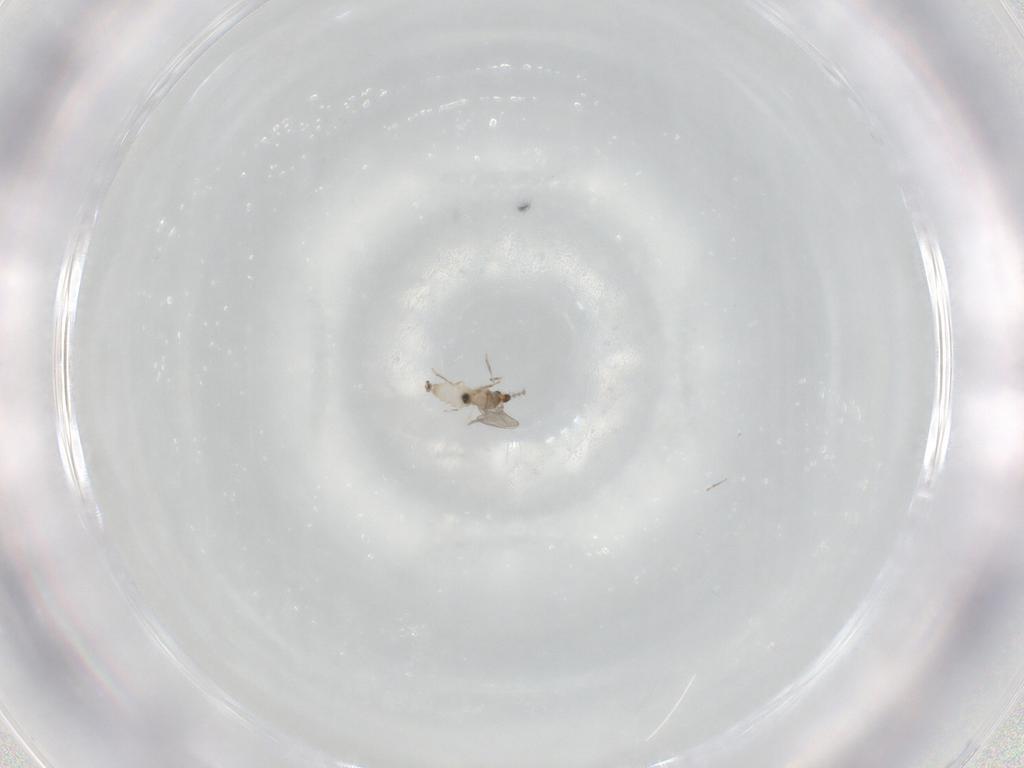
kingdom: Animalia
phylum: Arthropoda
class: Insecta
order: Diptera
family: Cecidomyiidae
